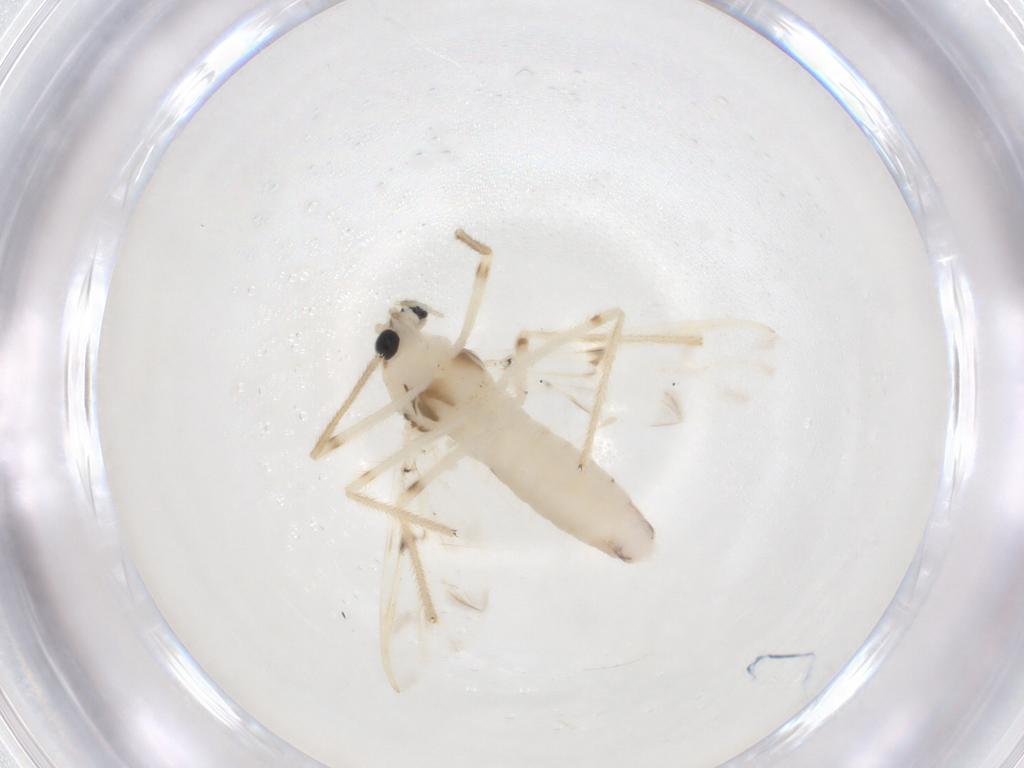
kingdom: Animalia
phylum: Arthropoda
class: Insecta
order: Diptera
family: Chironomidae
